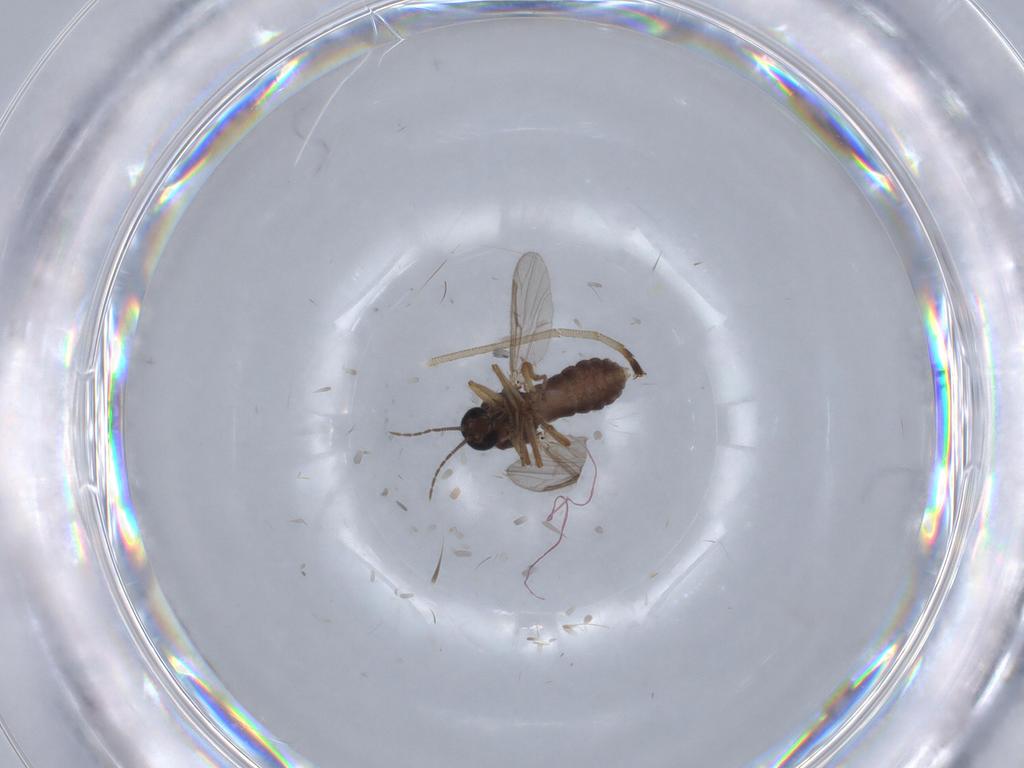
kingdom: Animalia
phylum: Arthropoda
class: Insecta
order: Diptera
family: Ceratopogonidae
